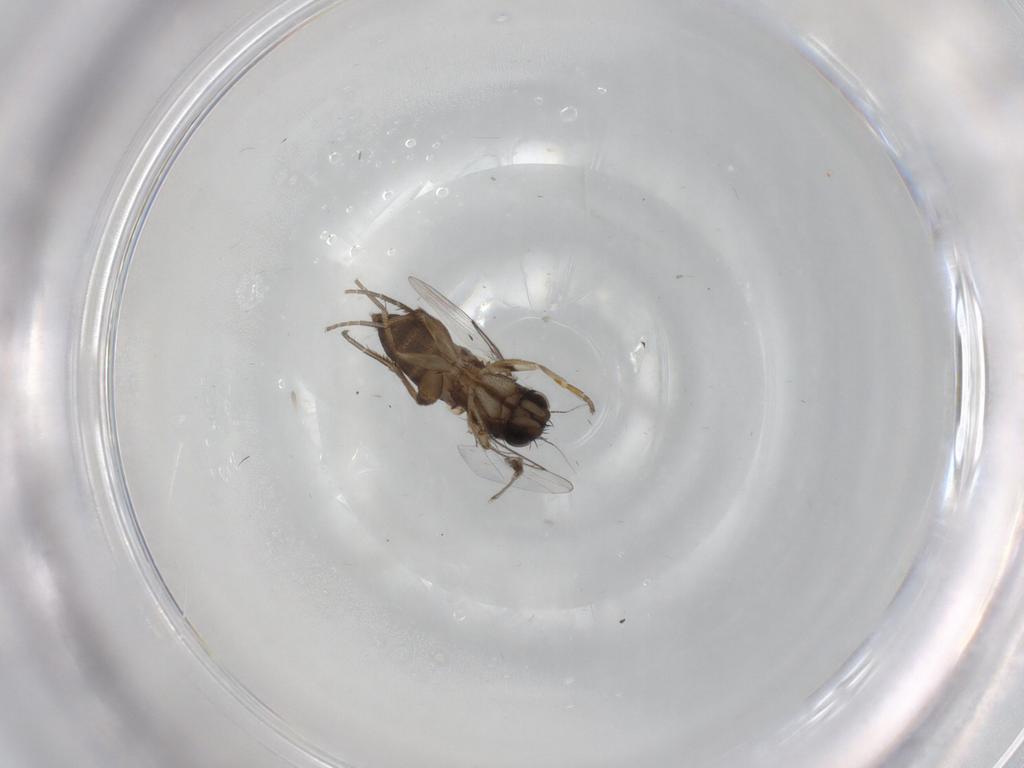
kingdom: Animalia
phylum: Arthropoda
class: Insecta
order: Diptera
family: Phoridae
